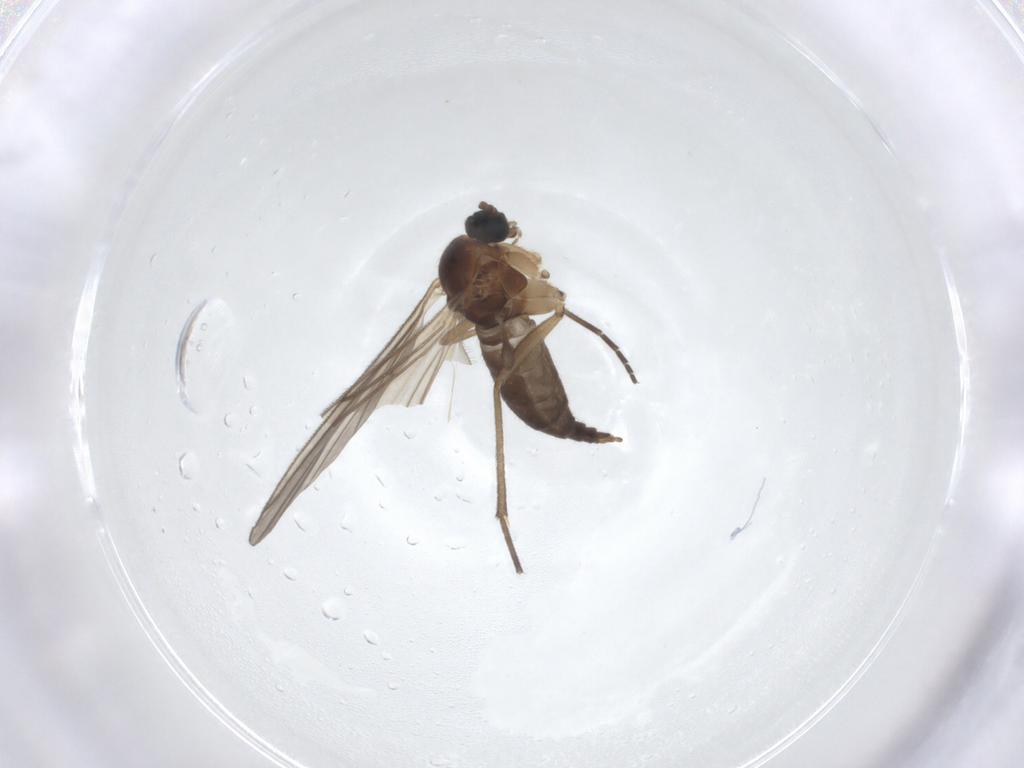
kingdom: Animalia
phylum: Arthropoda
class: Insecta
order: Diptera
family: Sciaridae
